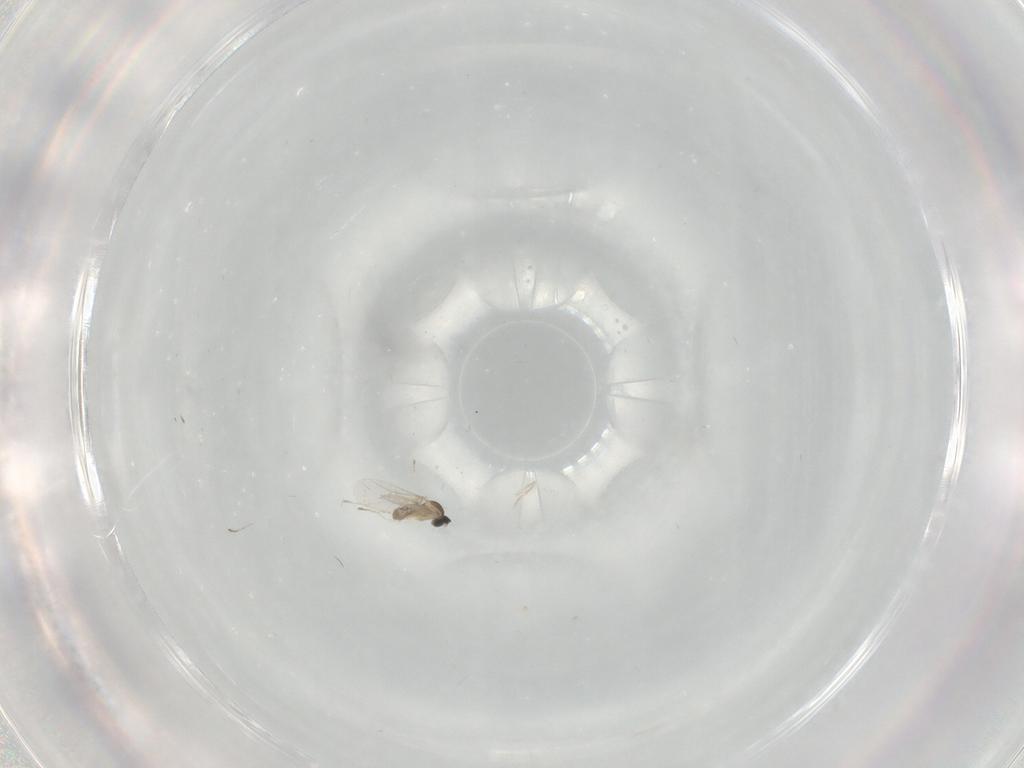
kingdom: Animalia
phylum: Arthropoda
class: Insecta
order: Diptera
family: Cecidomyiidae
